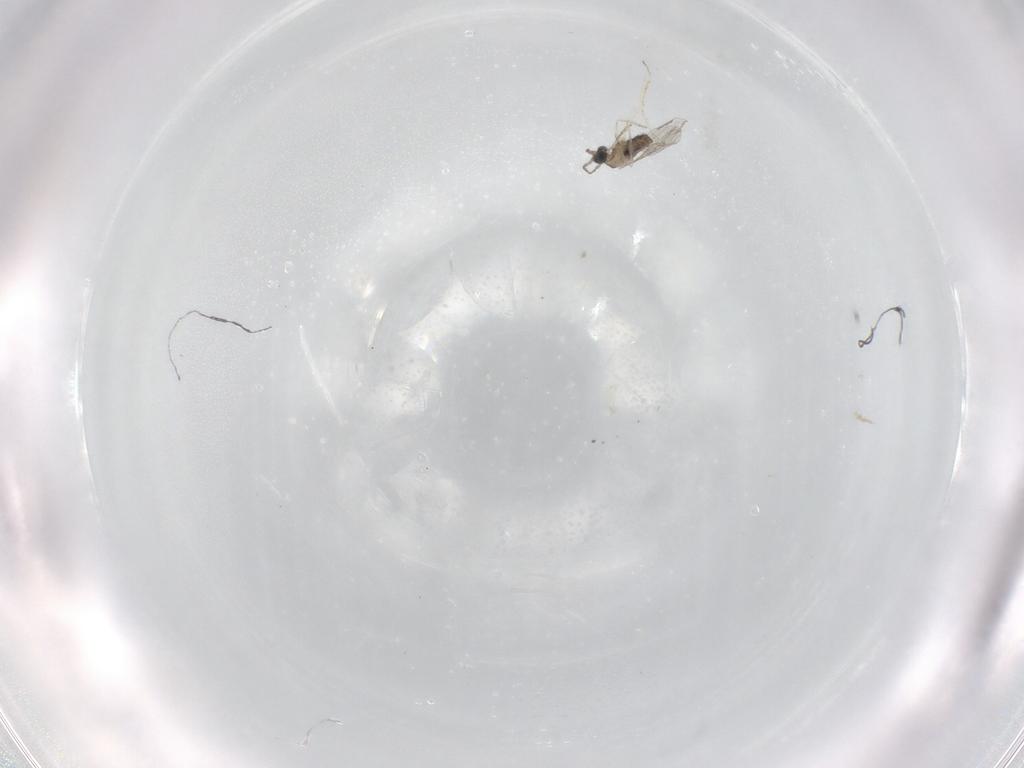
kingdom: Animalia
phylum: Arthropoda
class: Insecta
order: Diptera
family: Cecidomyiidae
